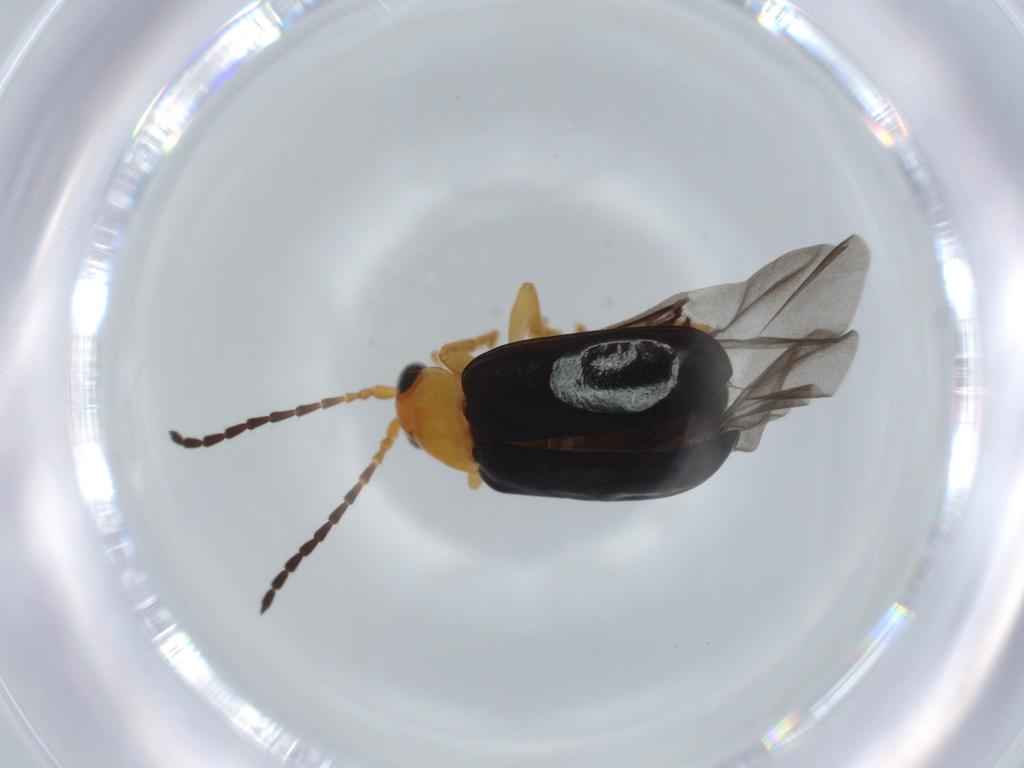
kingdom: Animalia
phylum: Arthropoda
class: Insecta
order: Coleoptera
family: Chrysomelidae
